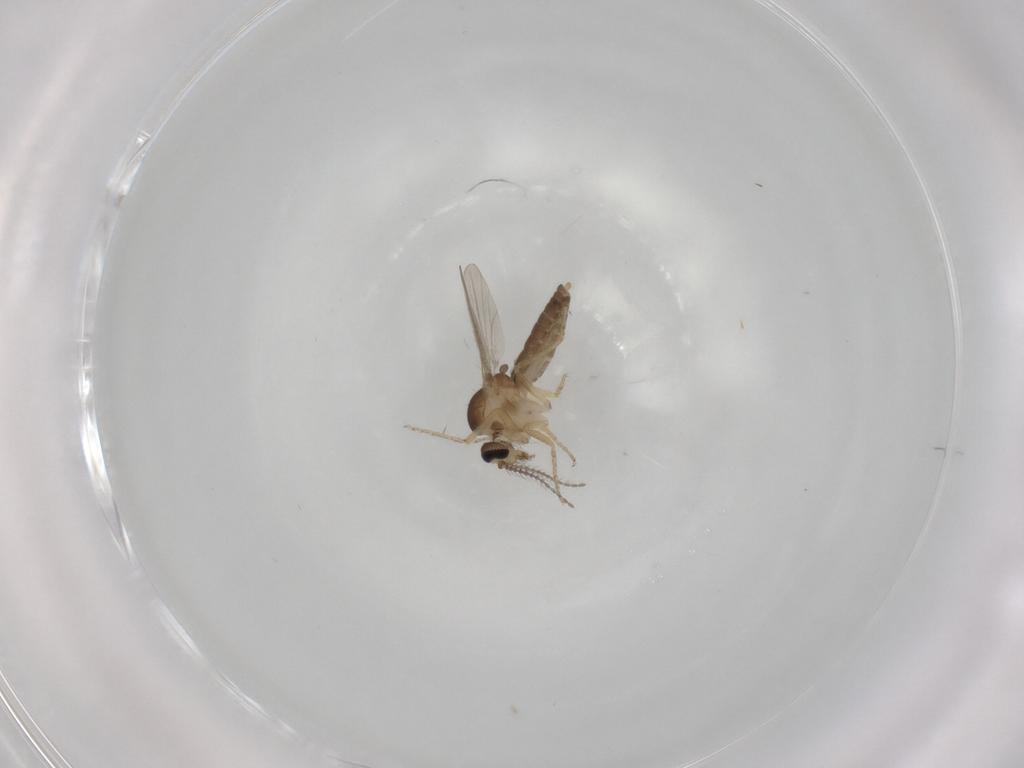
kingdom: Animalia
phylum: Arthropoda
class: Insecta
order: Diptera
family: Ceratopogonidae
